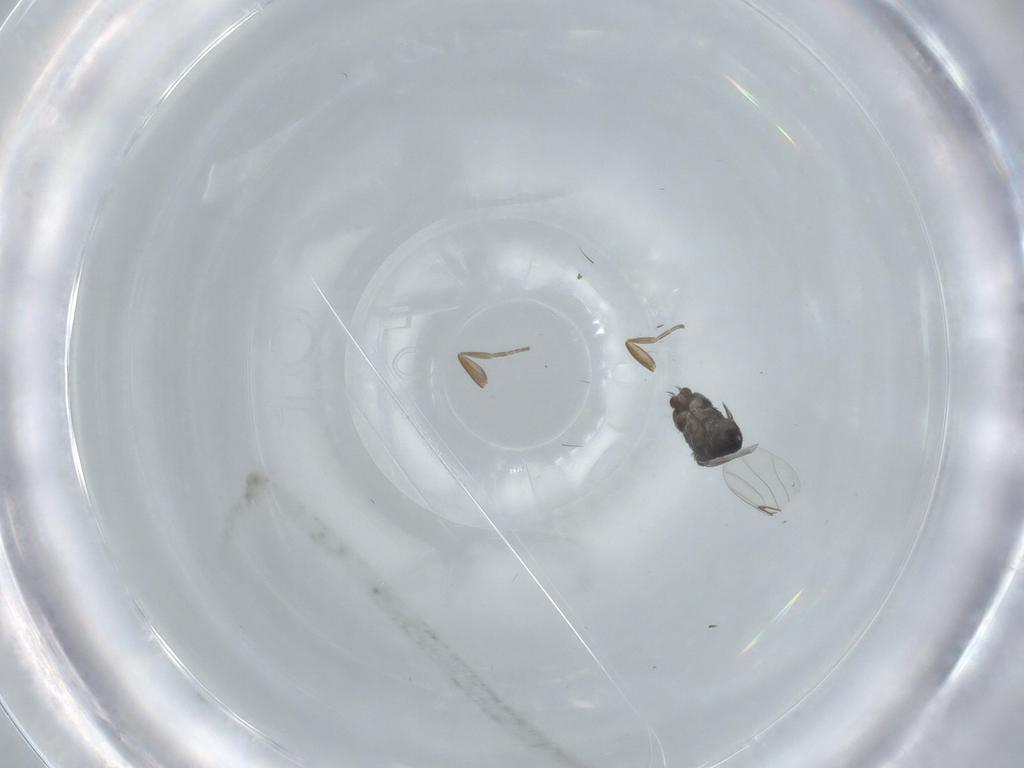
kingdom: Animalia
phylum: Arthropoda
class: Insecta
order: Diptera
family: Phoridae
